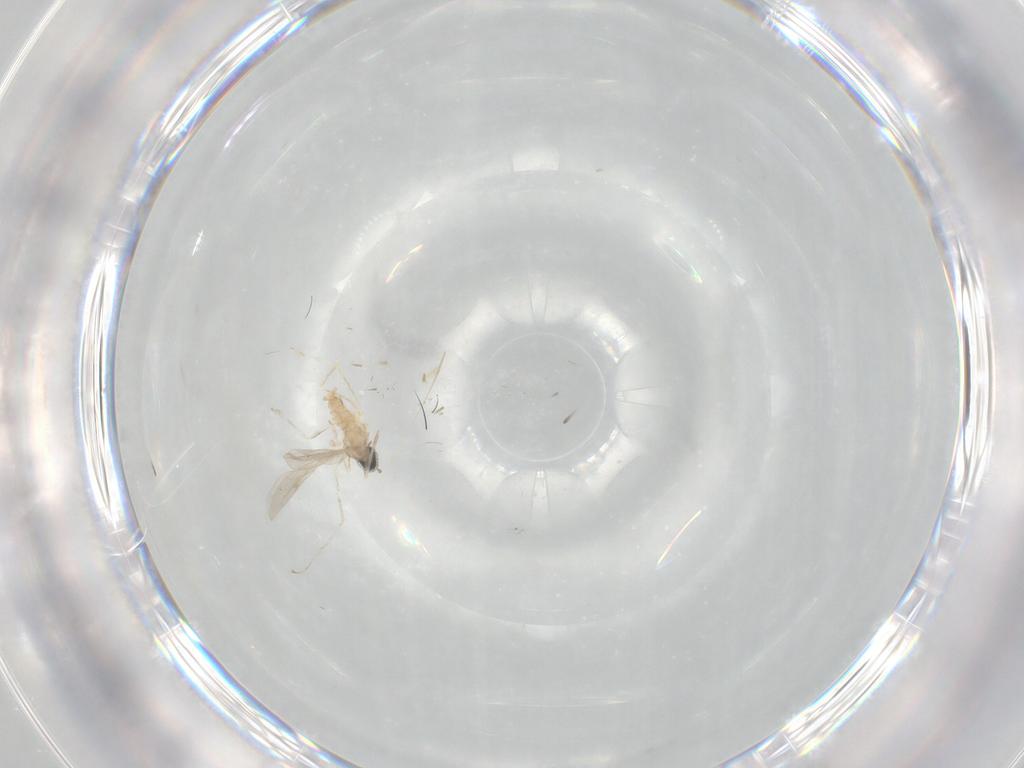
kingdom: Animalia
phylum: Arthropoda
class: Insecta
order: Diptera
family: Cecidomyiidae
